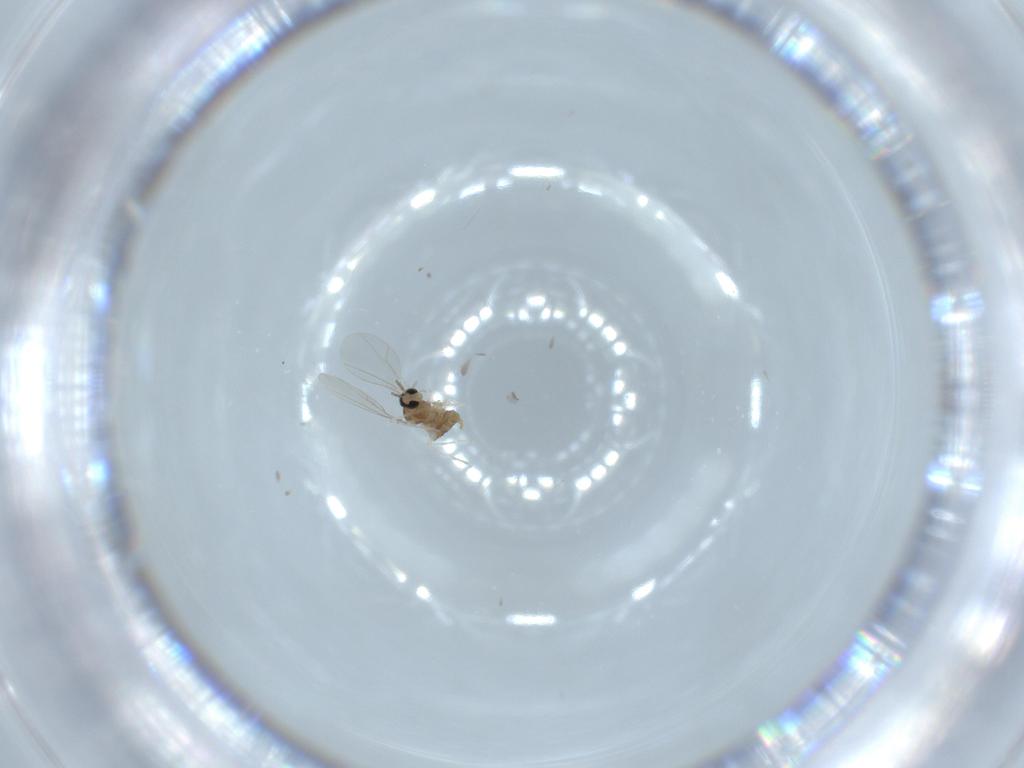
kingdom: Animalia
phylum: Arthropoda
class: Insecta
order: Diptera
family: Cecidomyiidae
